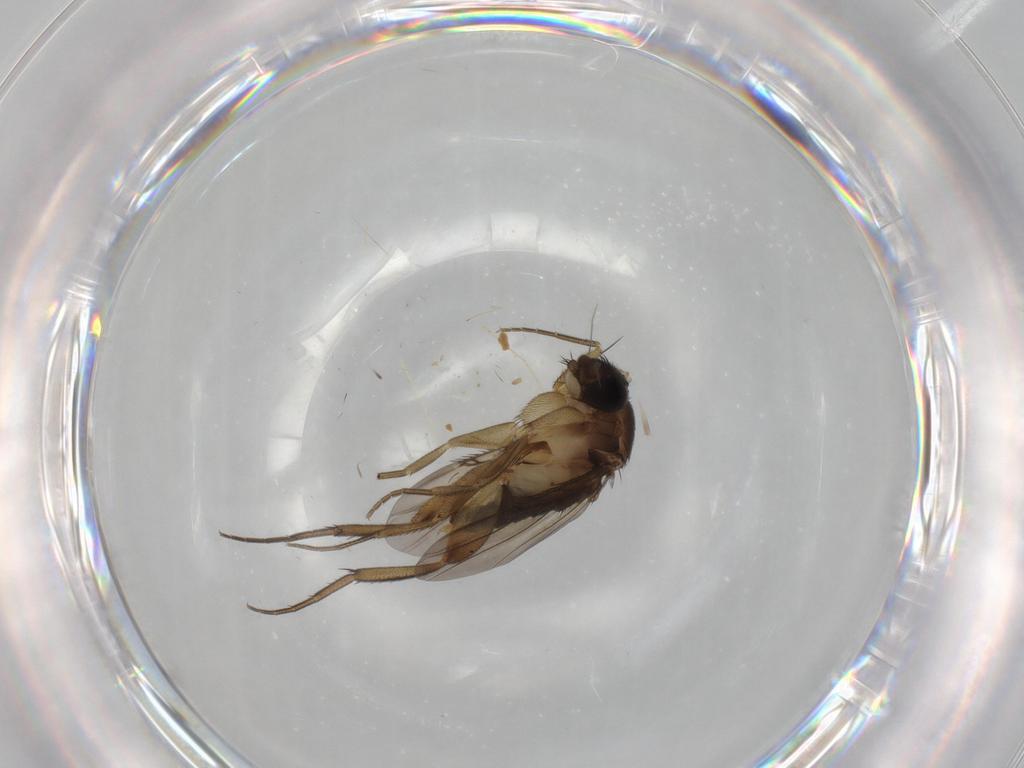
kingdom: Animalia
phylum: Arthropoda
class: Insecta
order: Diptera
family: Phoridae
